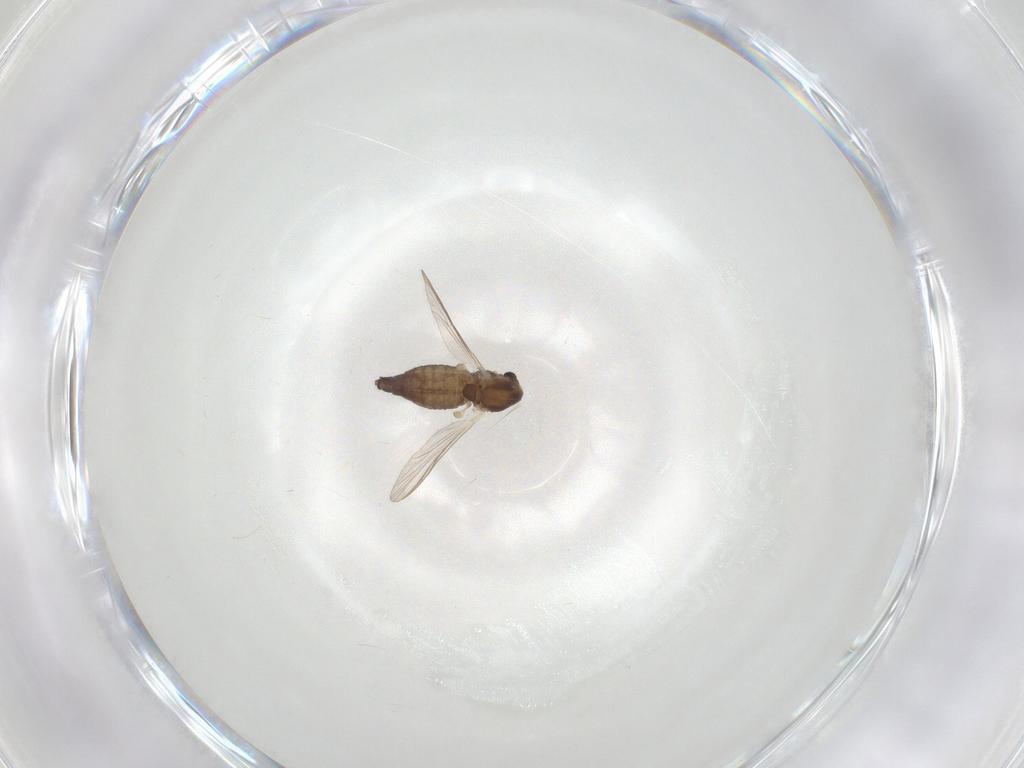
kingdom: Animalia
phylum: Arthropoda
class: Insecta
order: Diptera
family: Chironomidae
